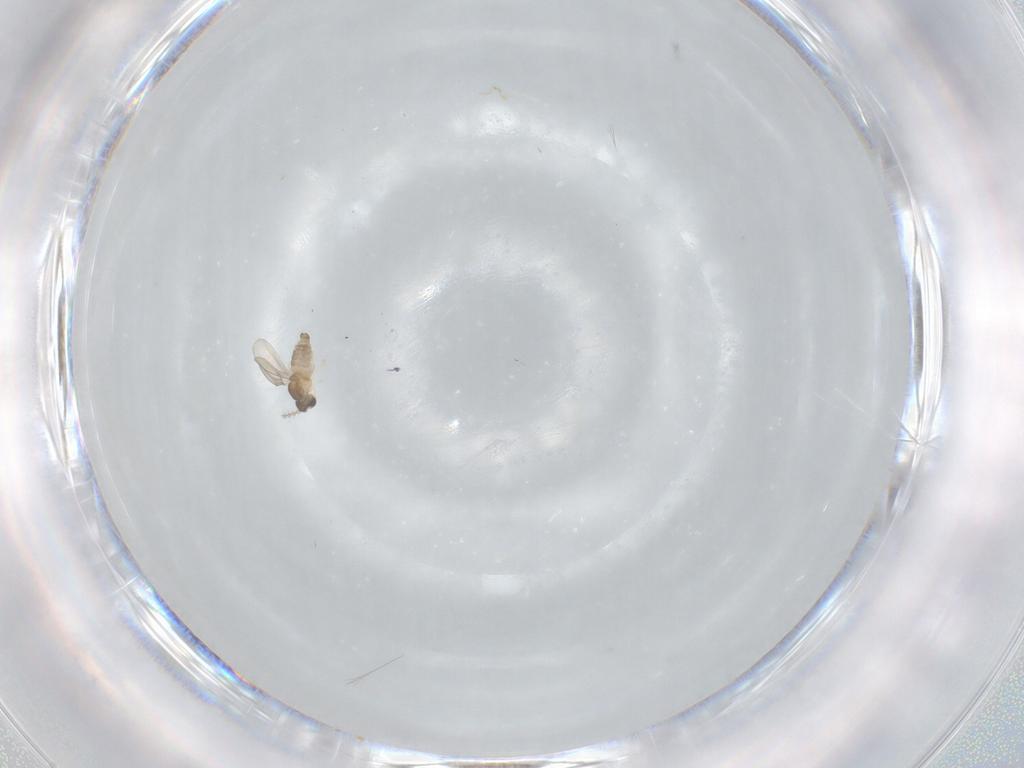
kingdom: Animalia
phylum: Arthropoda
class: Insecta
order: Diptera
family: Cecidomyiidae
